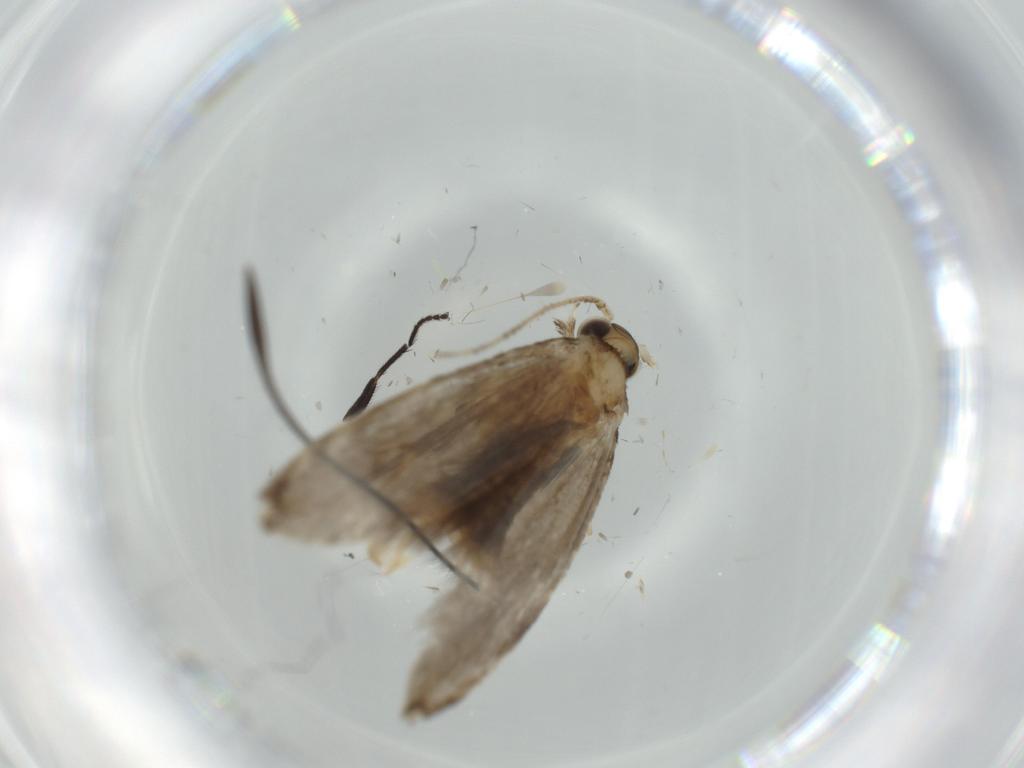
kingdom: Animalia
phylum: Arthropoda
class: Insecta
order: Lepidoptera
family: Tineidae
